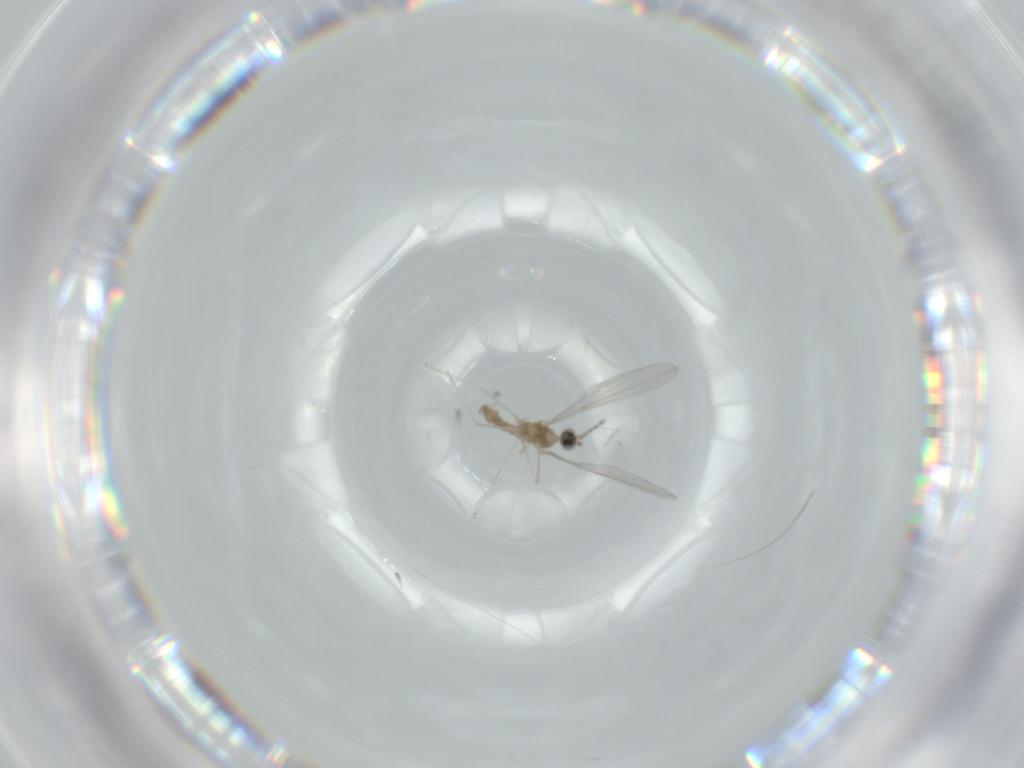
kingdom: Animalia
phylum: Arthropoda
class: Insecta
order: Diptera
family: Cecidomyiidae
